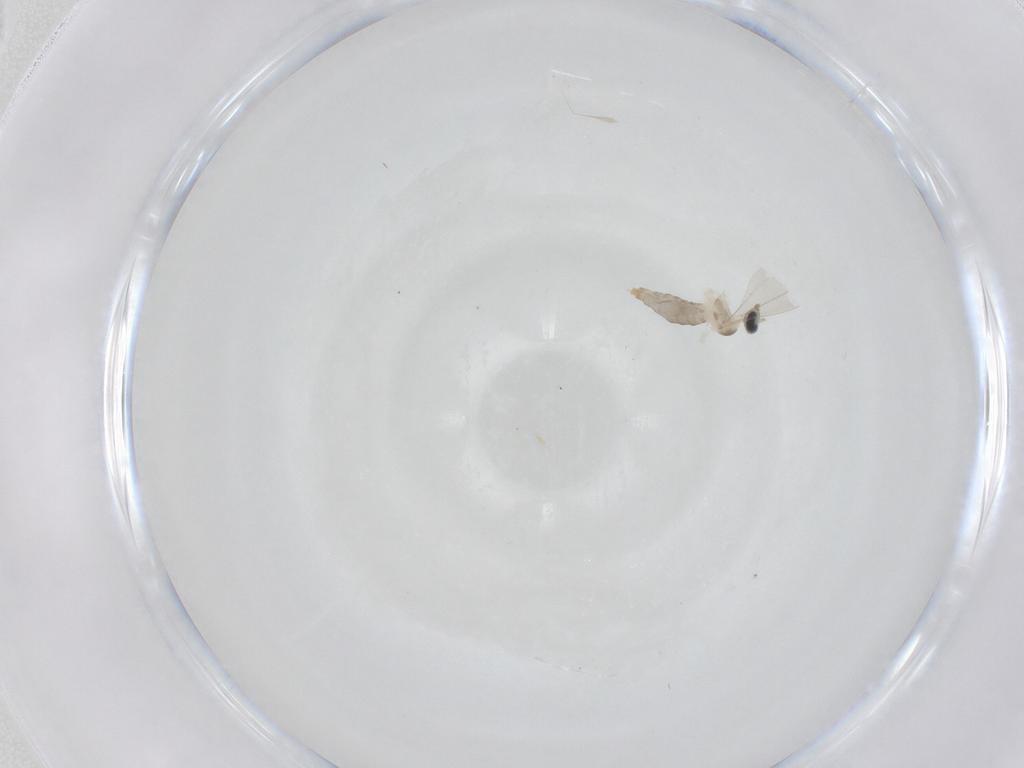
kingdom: Animalia
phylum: Arthropoda
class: Insecta
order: Diptera
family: Cecidomyiidae
